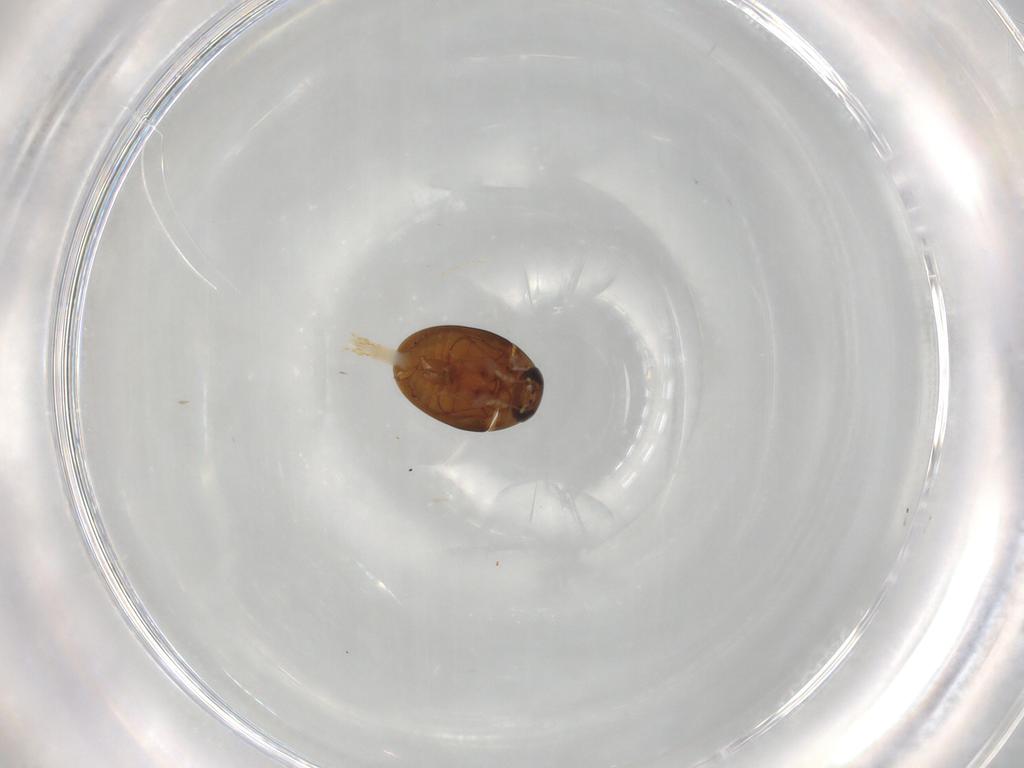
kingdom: Animalia
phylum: Arthropoda
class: Insecta
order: Coleoptera
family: Phalacridae
